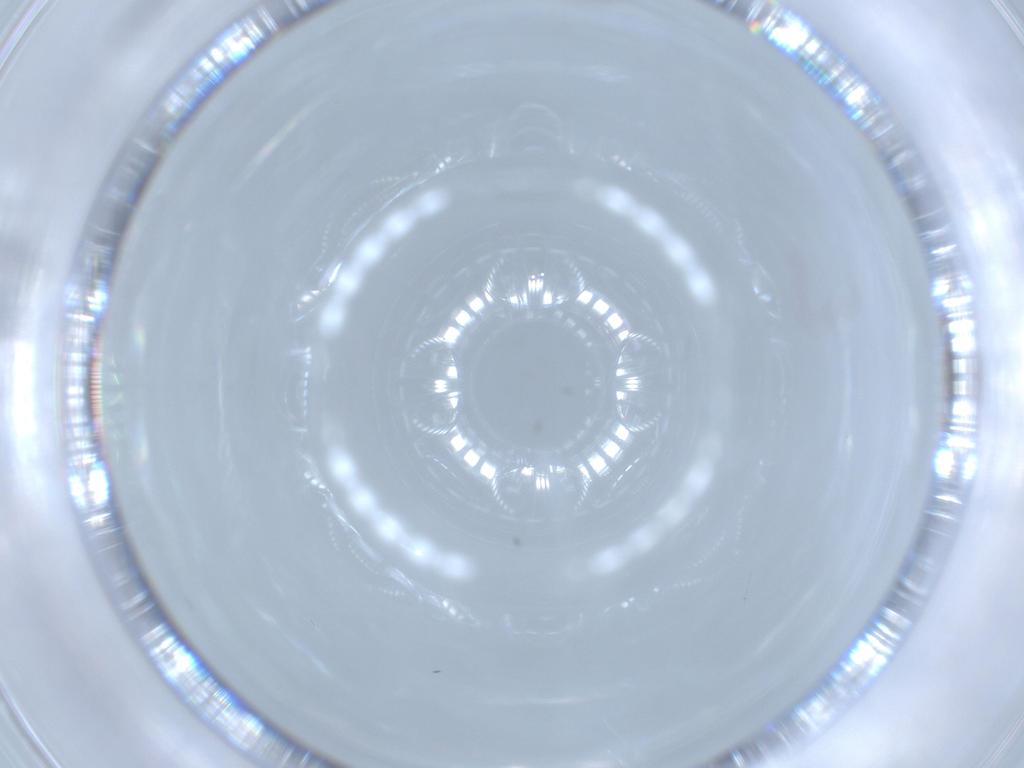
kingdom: Animalia
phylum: Arthropoda
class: Insecta
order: Diptera
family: Sciaridae
